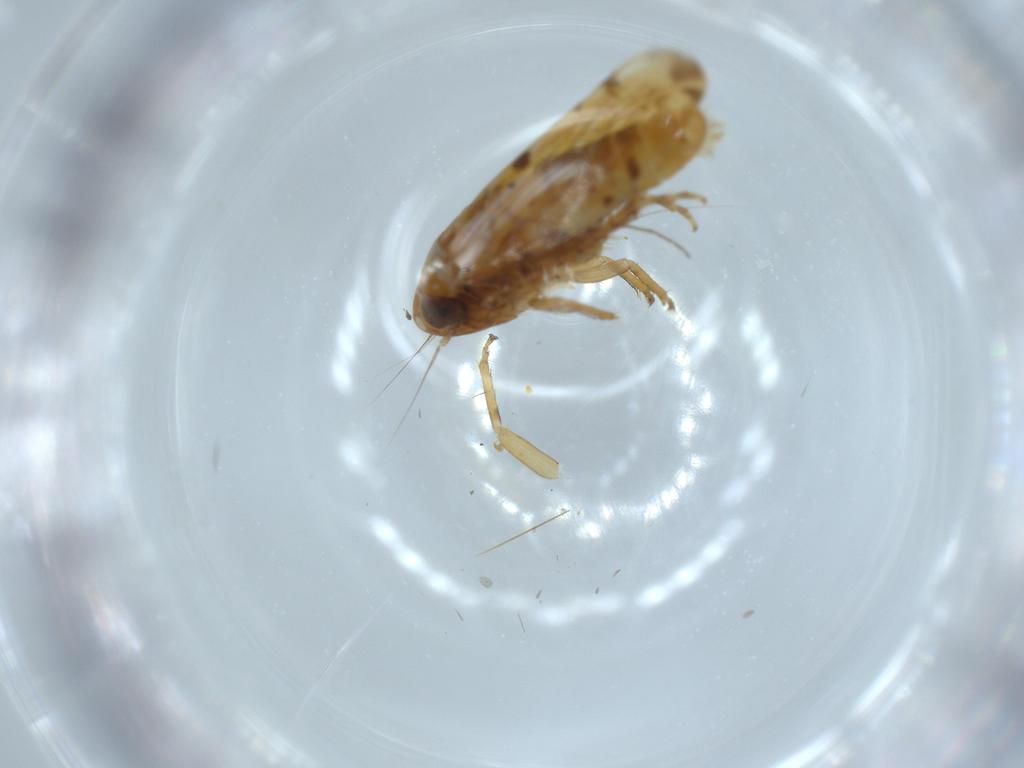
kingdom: Animalia
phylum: Arthropoda
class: Insecta
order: Hemiptera
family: Cicadellidae
